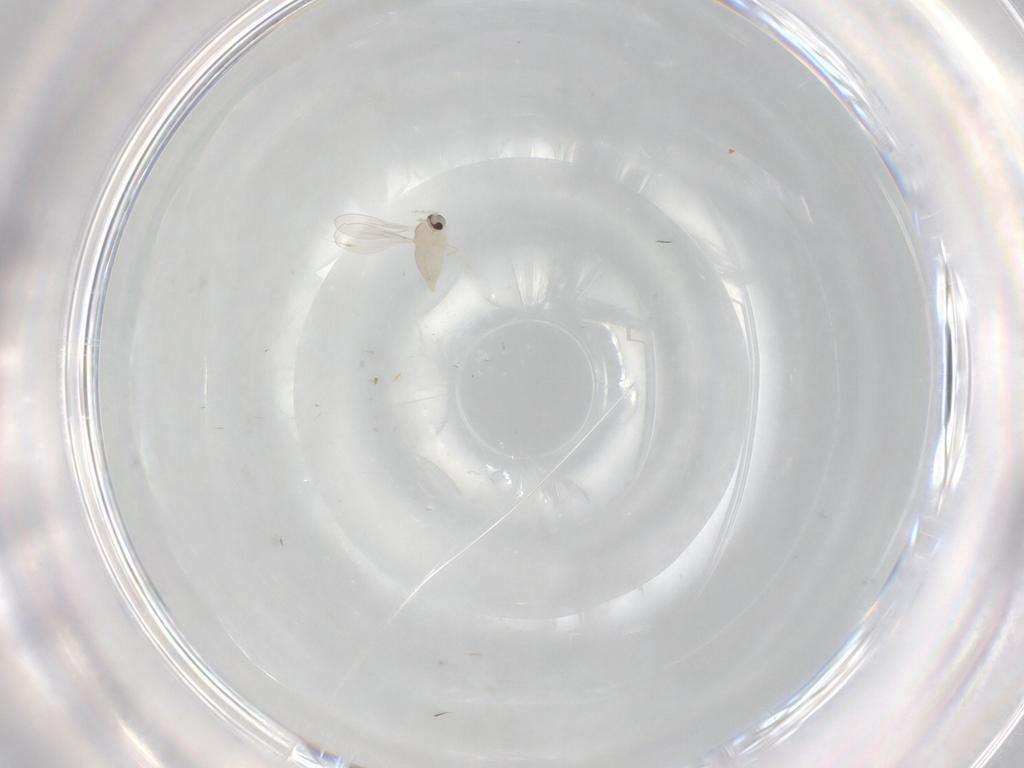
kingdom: Animalia
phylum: Arthropoda
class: Insecta
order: Diptera
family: Cecidomyiidae
